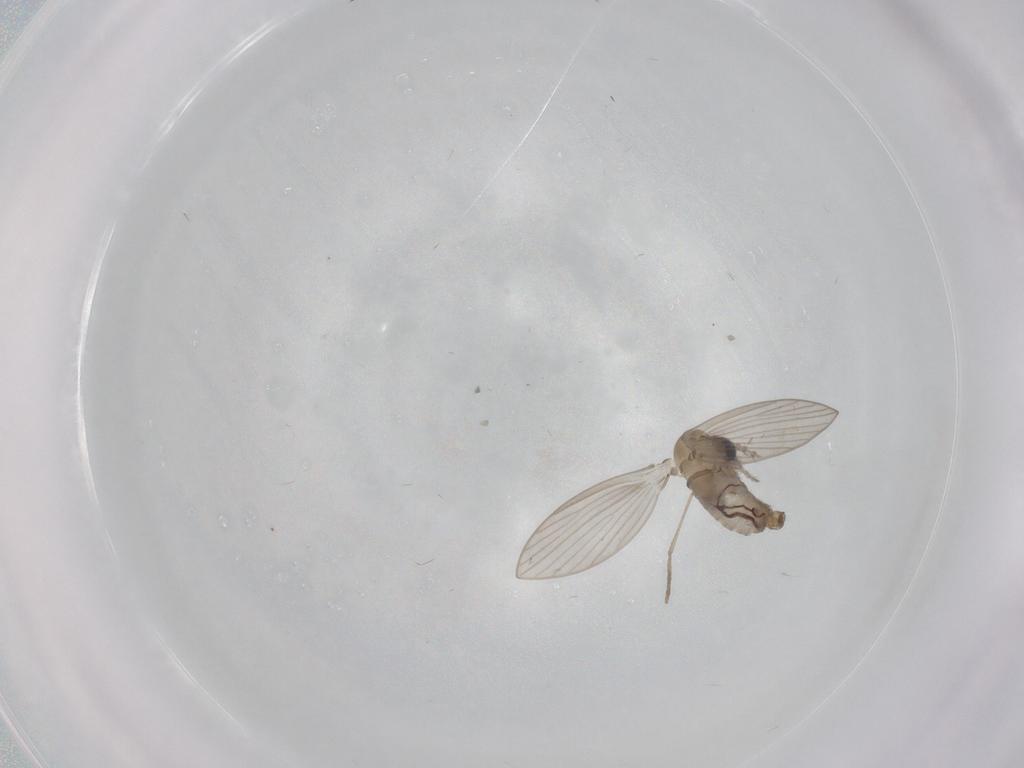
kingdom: Animalia
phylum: Arthropoda
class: Insecta
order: Diptera
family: Psychodidae
